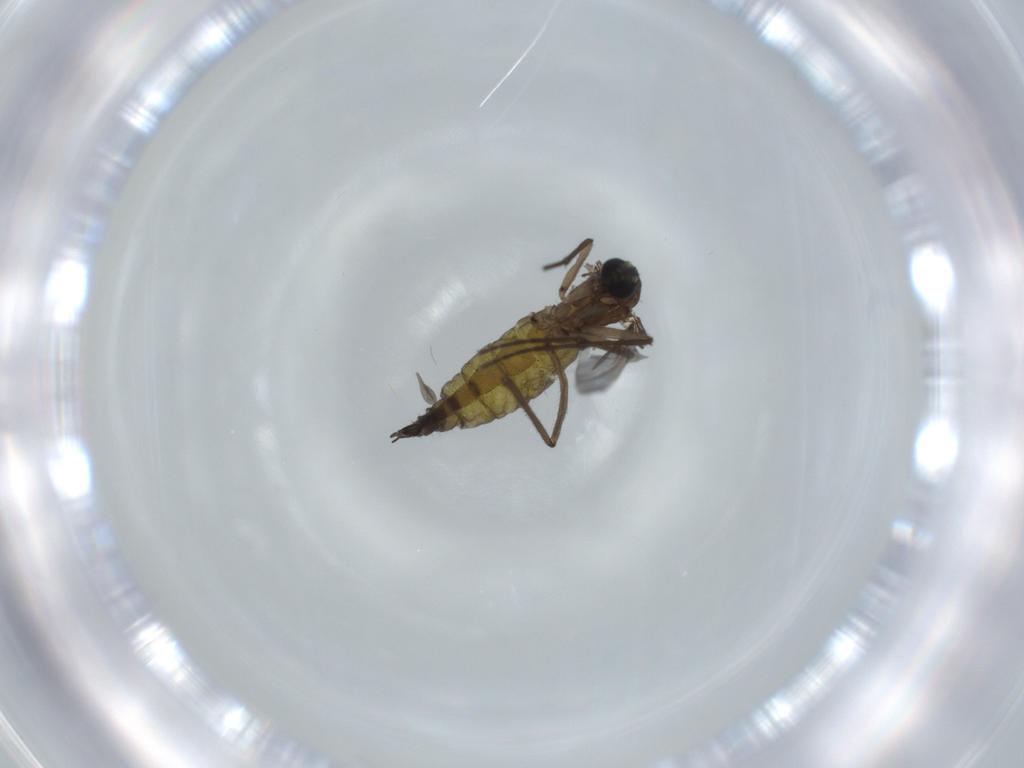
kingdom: Animalia
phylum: Arthropoda
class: Insecta
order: Diptera
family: Sciaridae
